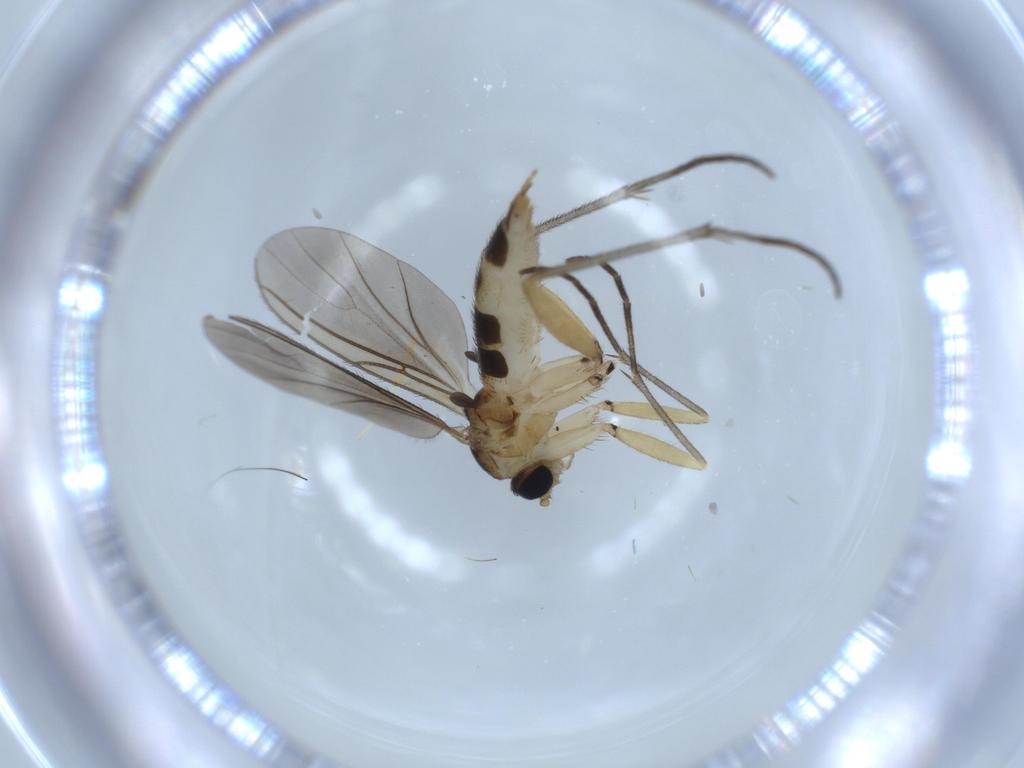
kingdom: Animalia
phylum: Arthropoda
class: Insecta
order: Diptera
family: Sciaridae
